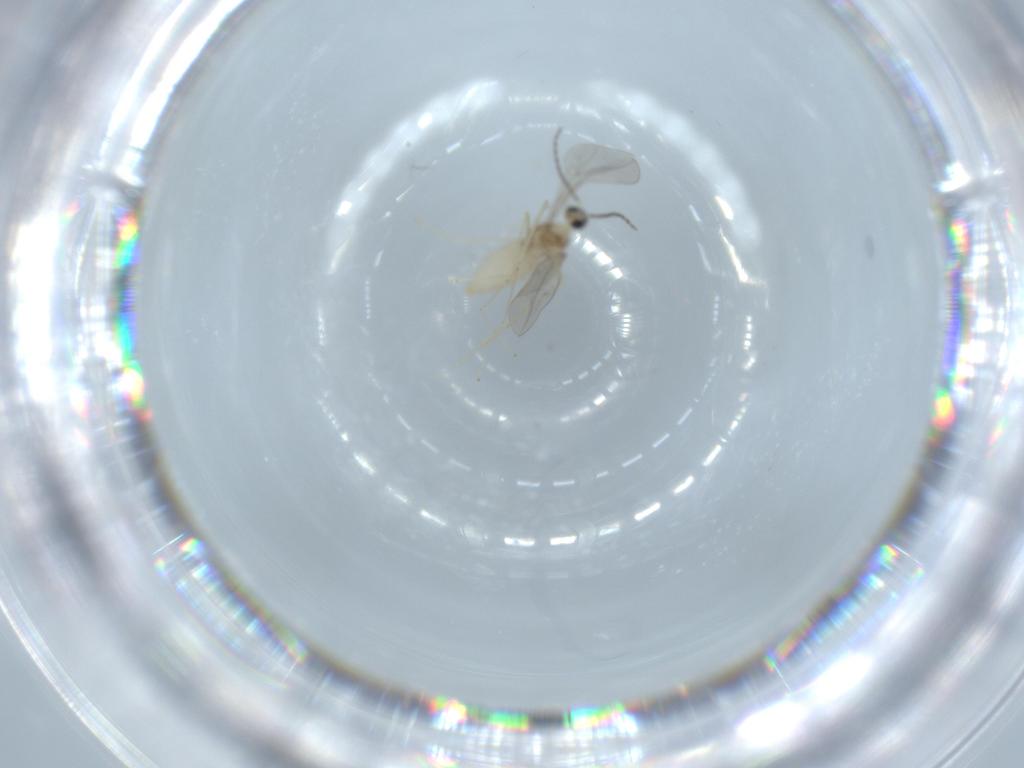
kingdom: Animalia
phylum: Arthropoda
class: Insecta
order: Diptera
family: Cecidomyiidae
